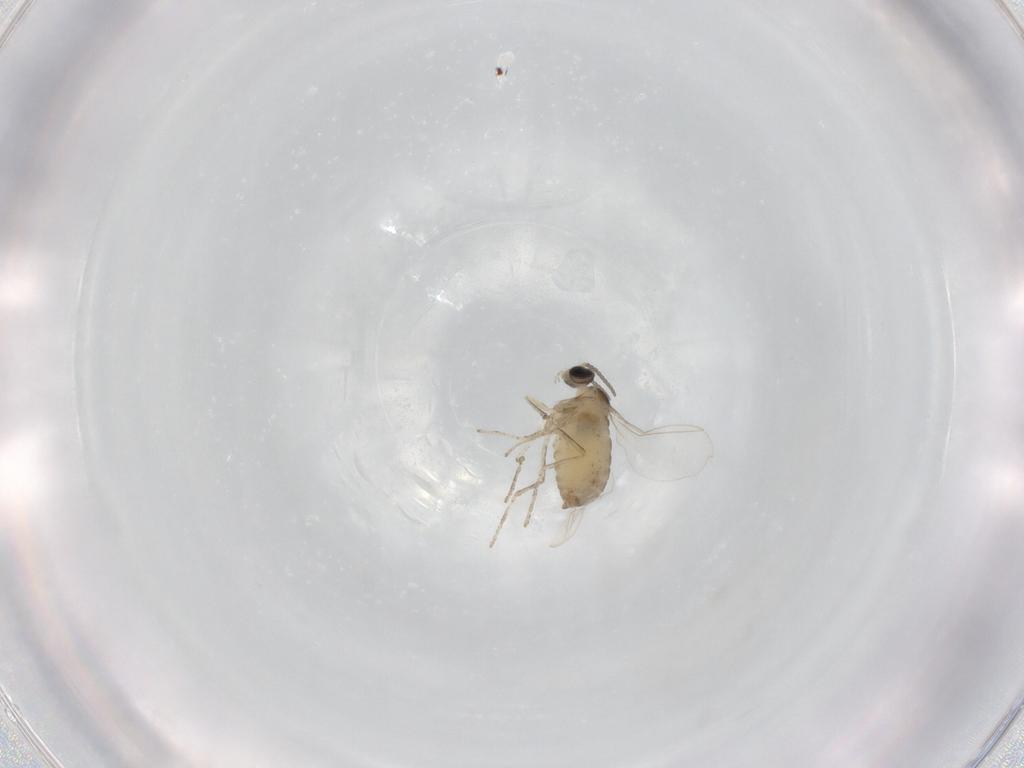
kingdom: Animalia
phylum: Arthropoda
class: Insecta
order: Diptera
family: Cecidomyiidae
